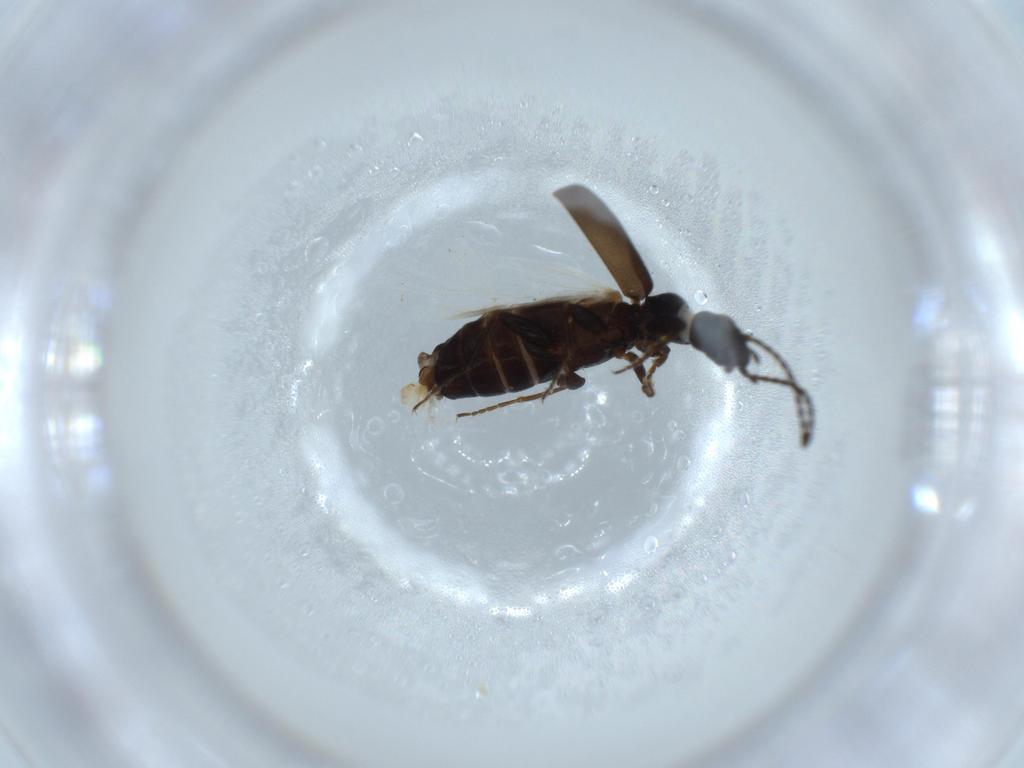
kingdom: Animalia
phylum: Arthropoda
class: Insecta
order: Coleoptera
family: Carabidae
